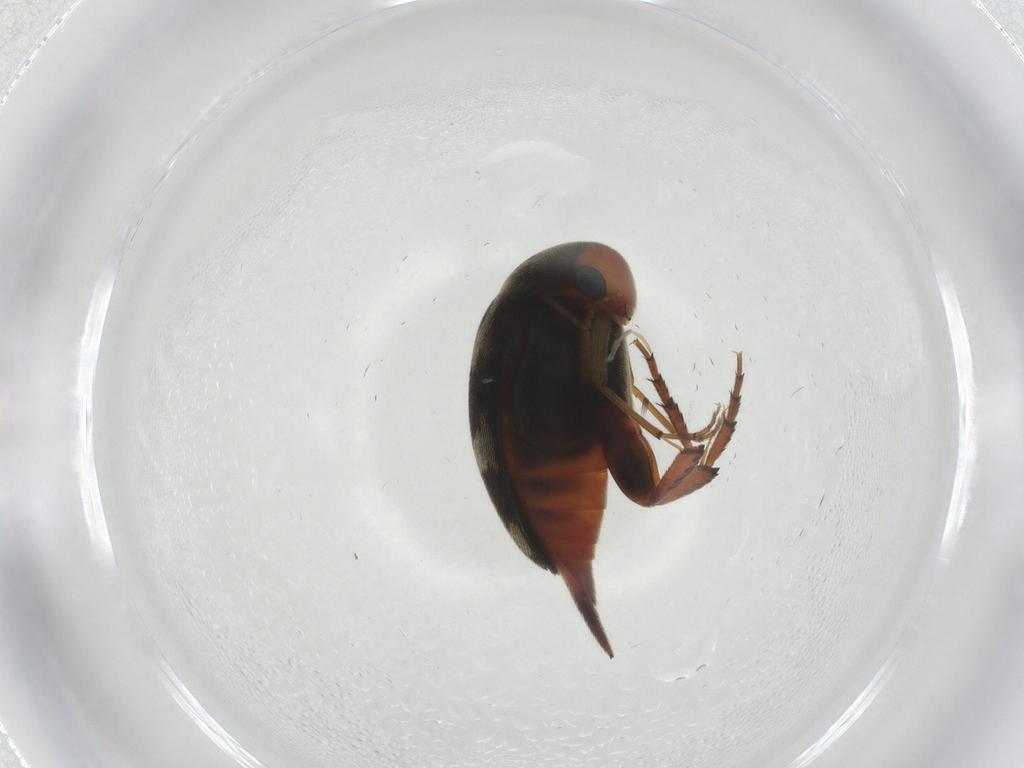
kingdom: Animalia
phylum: Arthropoda
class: Insecta
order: Coleoptera
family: Mordellidae
